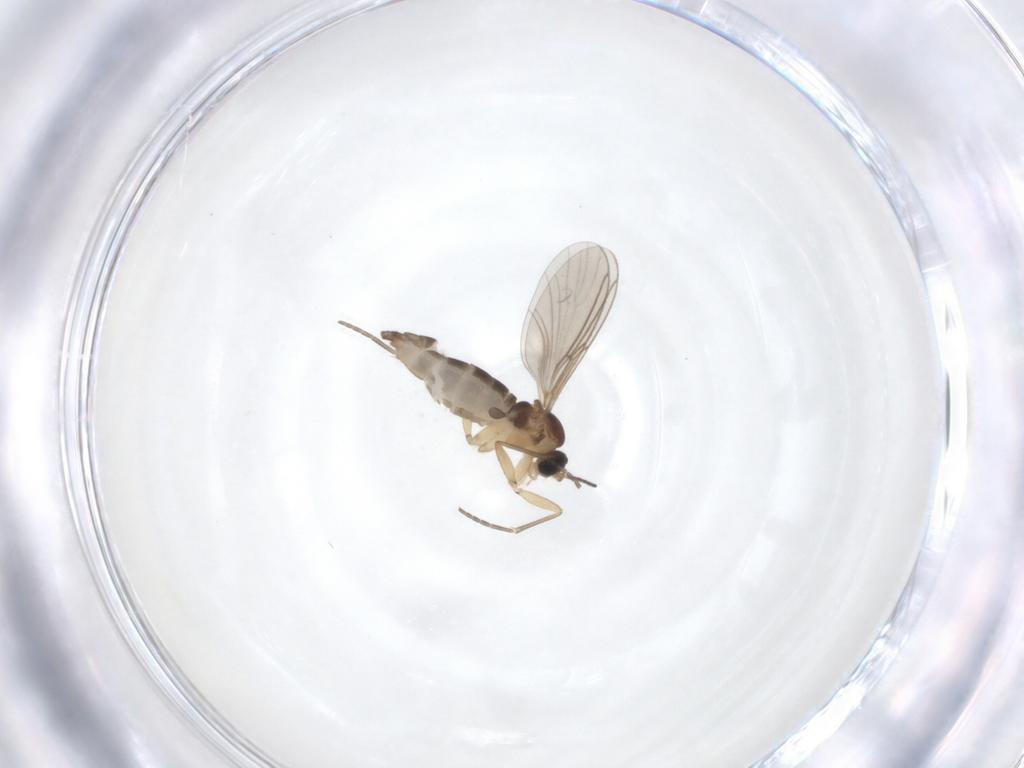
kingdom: Animalia
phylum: Arthropoda
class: Insecta
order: Diptera
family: Sciaridae
